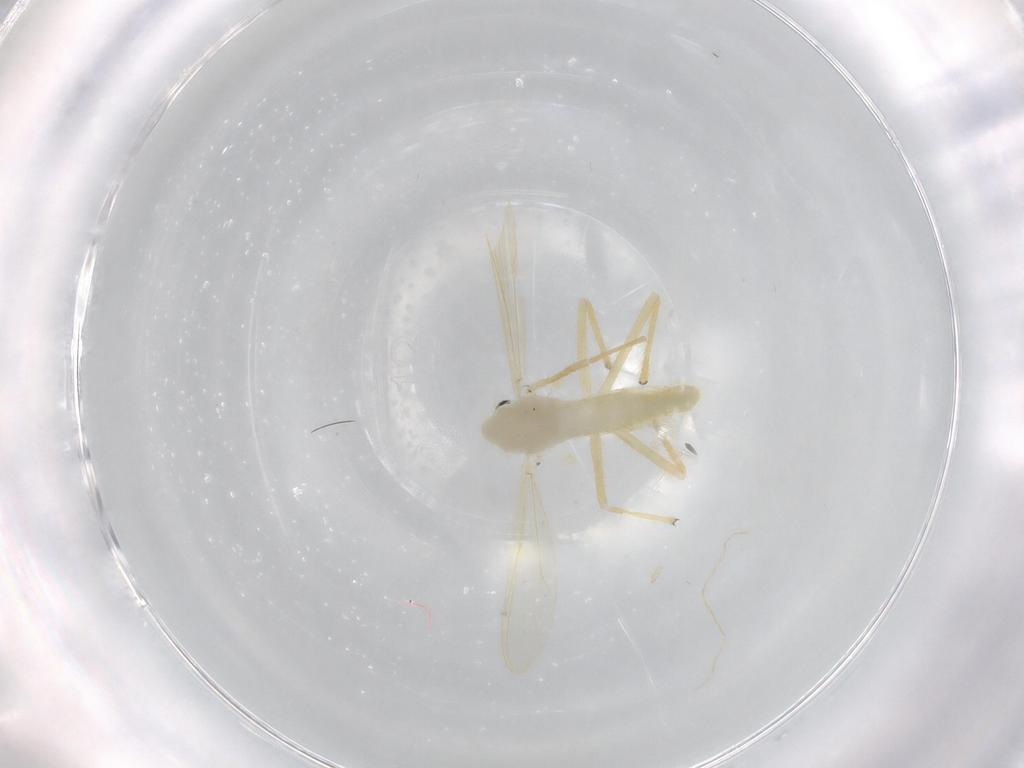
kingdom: Animalia
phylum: Arthropoda
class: Insecta
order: Diptera
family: Chironomidae
